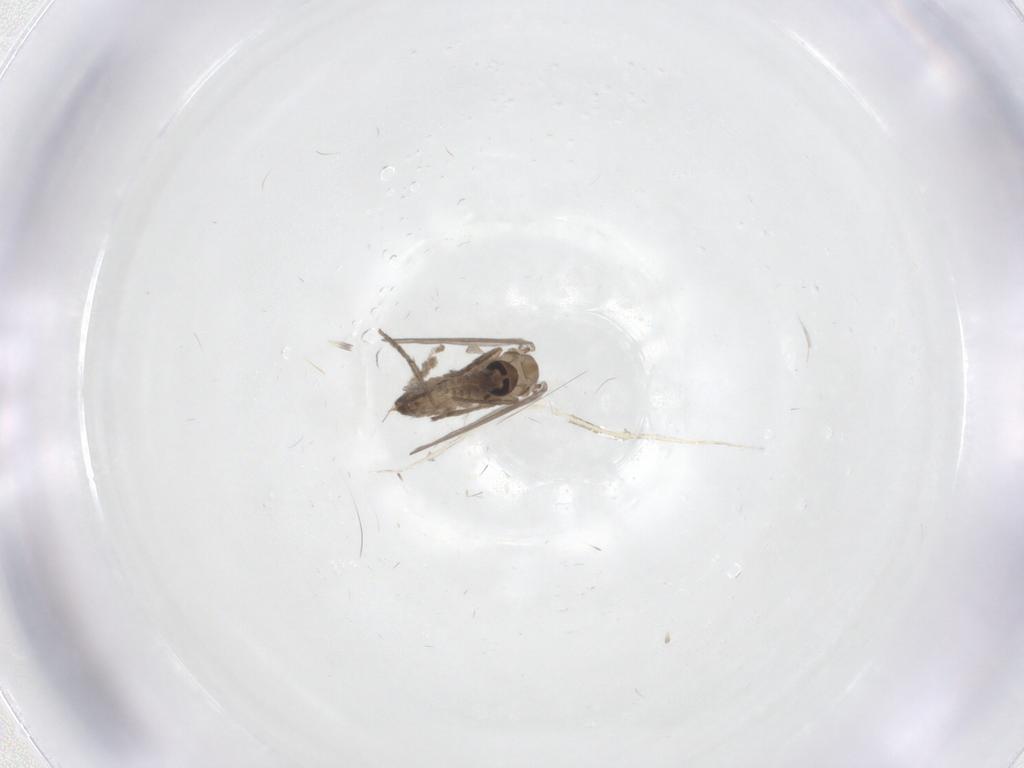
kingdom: Animalia
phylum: Arthropoda
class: Insecta
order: Diptera
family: Psychodidae
